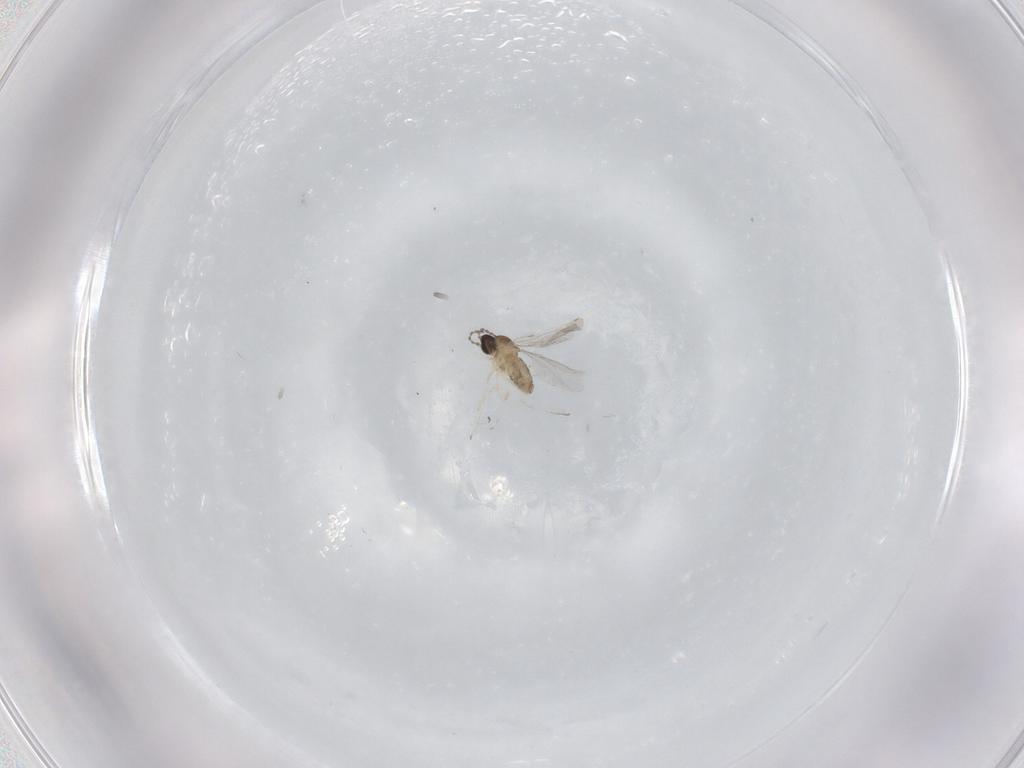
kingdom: Animalia
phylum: Arthropoda
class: Insecta
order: Diptera
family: Cecidomyiidae
